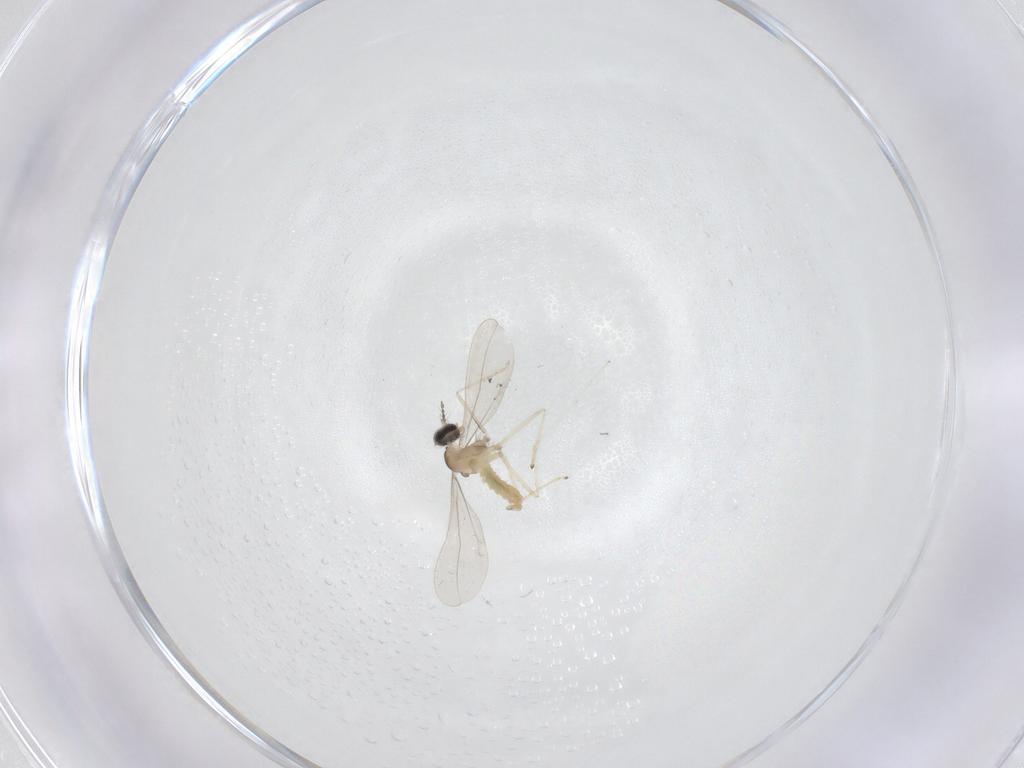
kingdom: Animalia
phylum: Arthropoda
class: Insecta
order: Diptera
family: Cecidomyiidae
